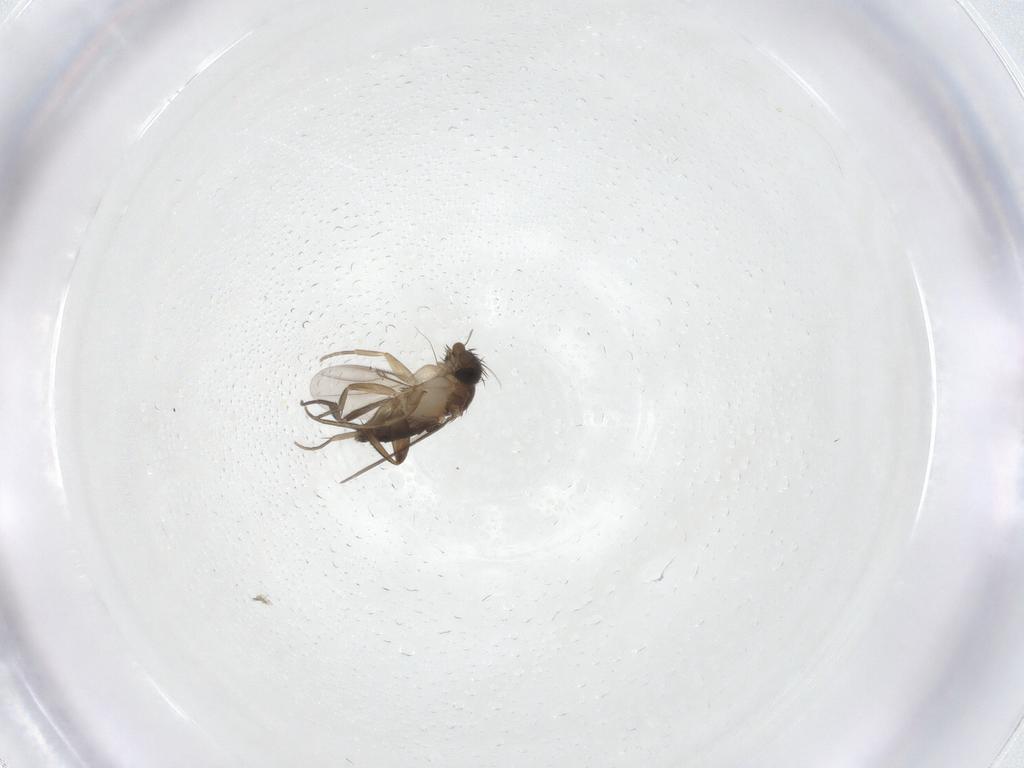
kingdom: Animalia
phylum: Arthropoda
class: Insecta
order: Diptera
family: Phoridae
